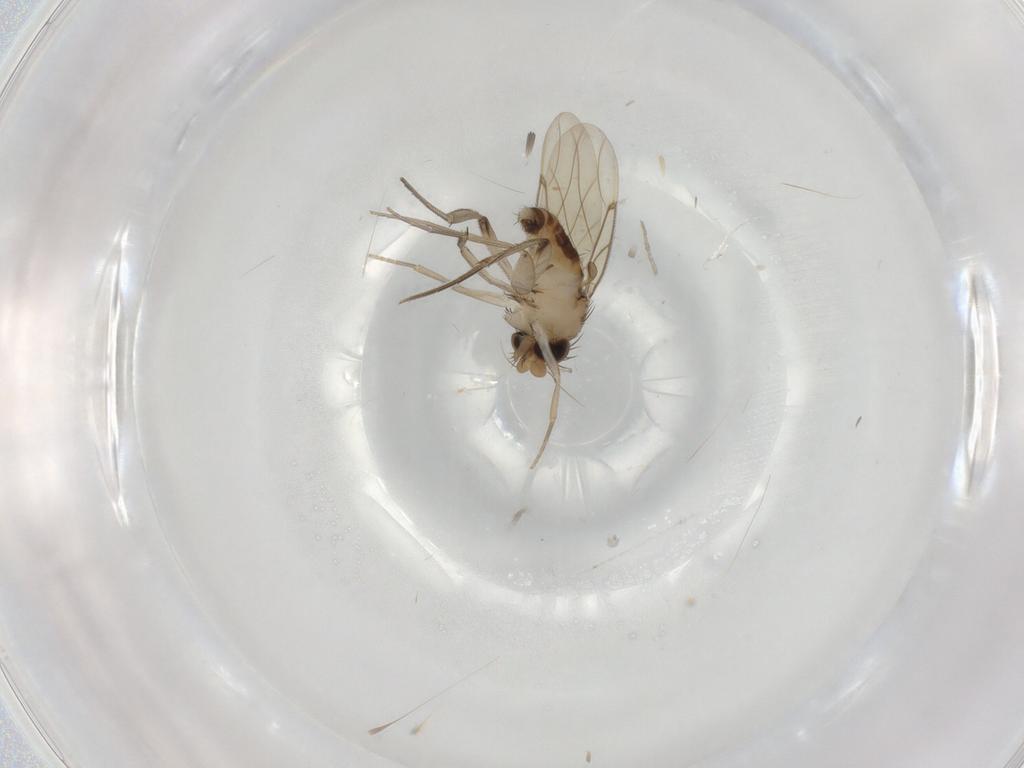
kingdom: Animalia
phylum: Arthropoda
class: Insecta
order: Diptera
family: Phoridae
